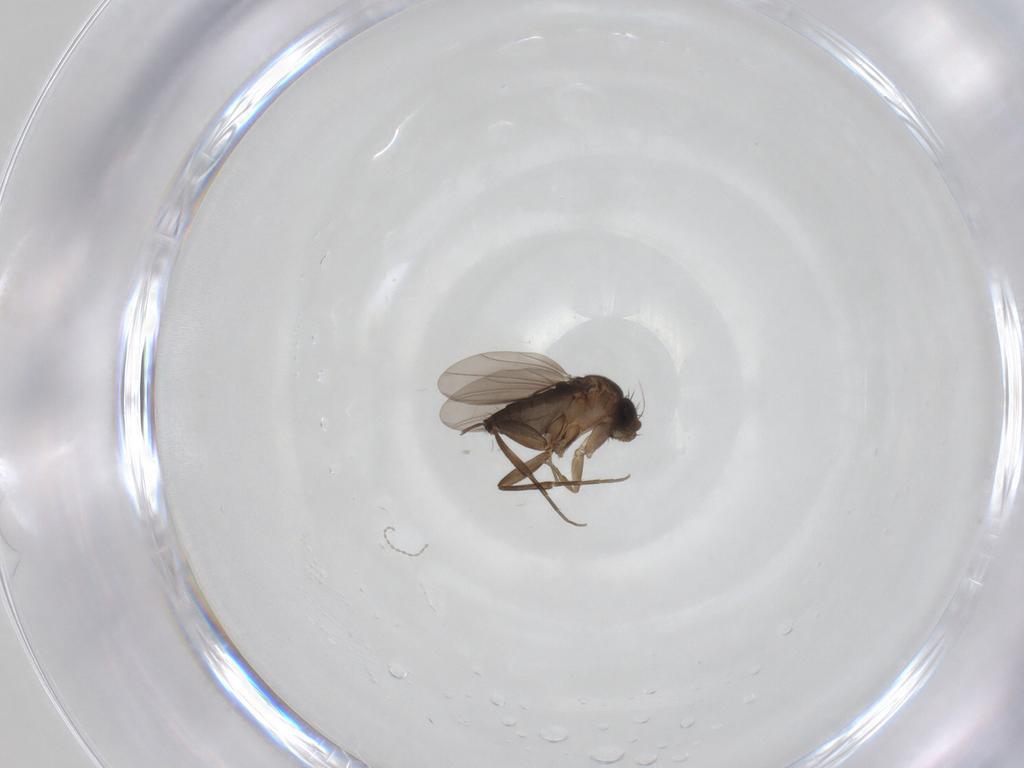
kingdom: Animalia
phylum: Arthropoda
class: Insecta
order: Diptera
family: Phoridae
